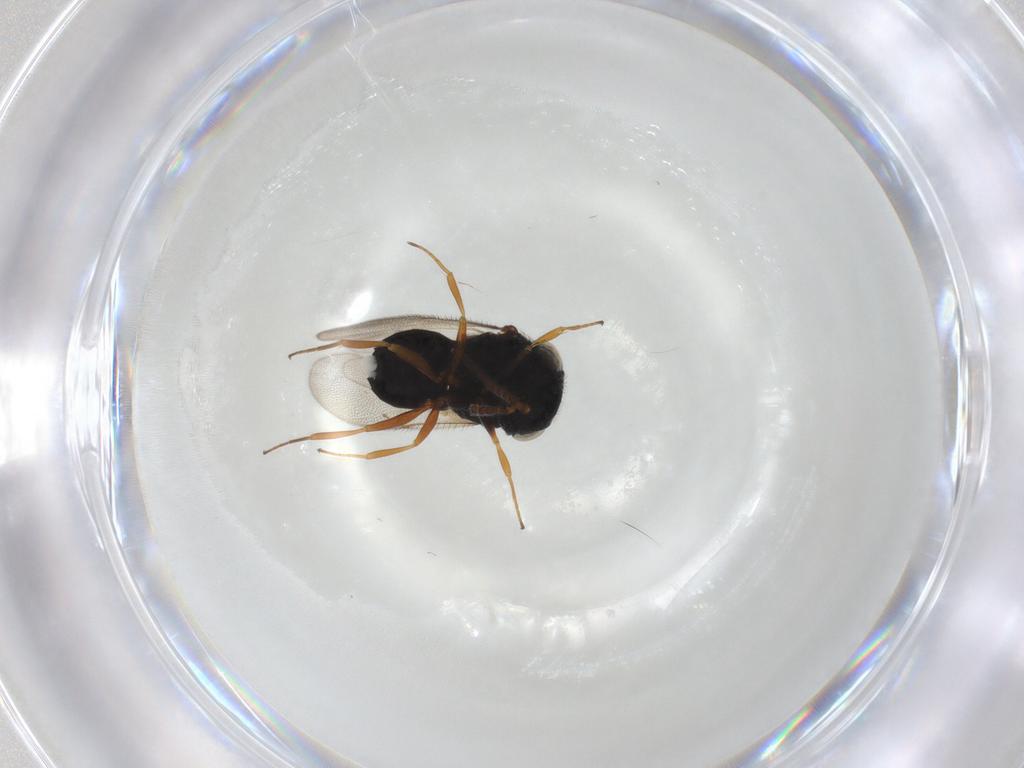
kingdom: Animalia
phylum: Arthropoda
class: Insecta
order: Hymenoptera
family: Scelionidae
